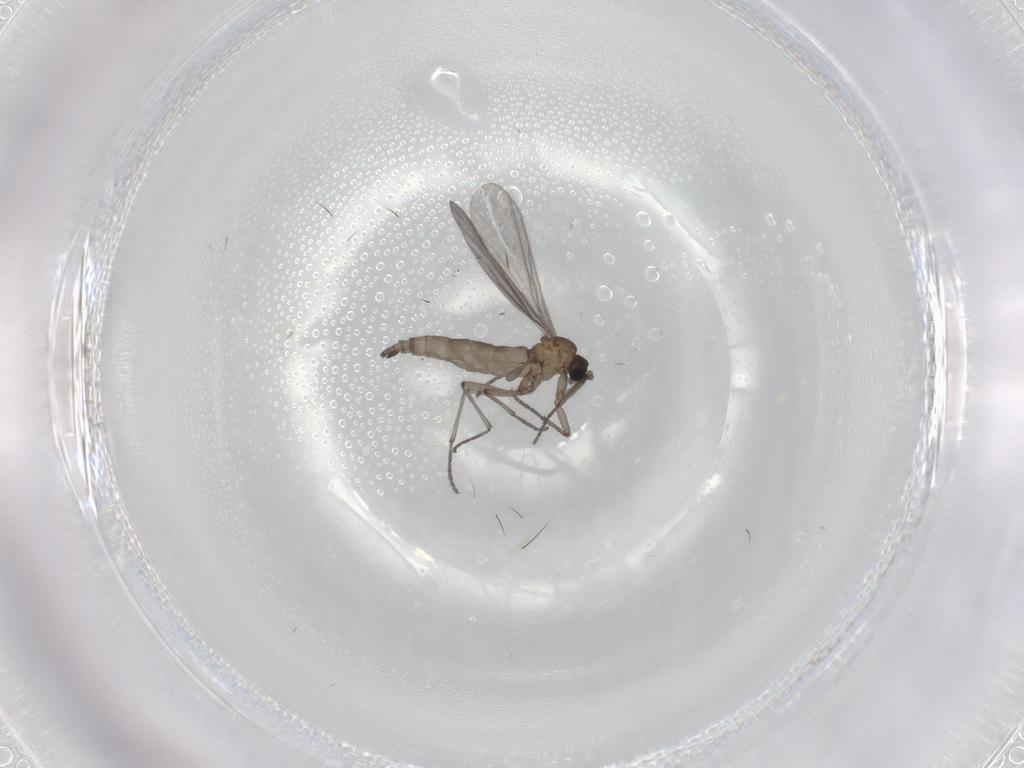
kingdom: Animalia
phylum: Arthropoda
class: Insecta
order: Diptera
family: Sciaridae
